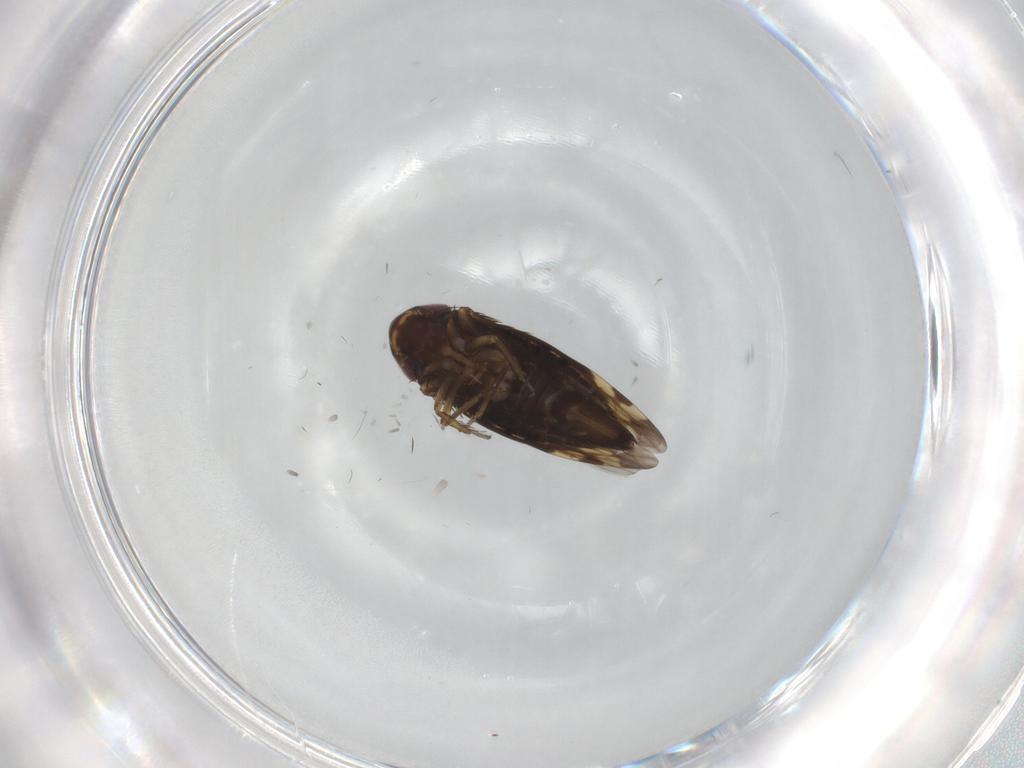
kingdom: Animalia
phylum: Arthropoda
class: Insecta
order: Hemiptera
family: Cicadellidae
